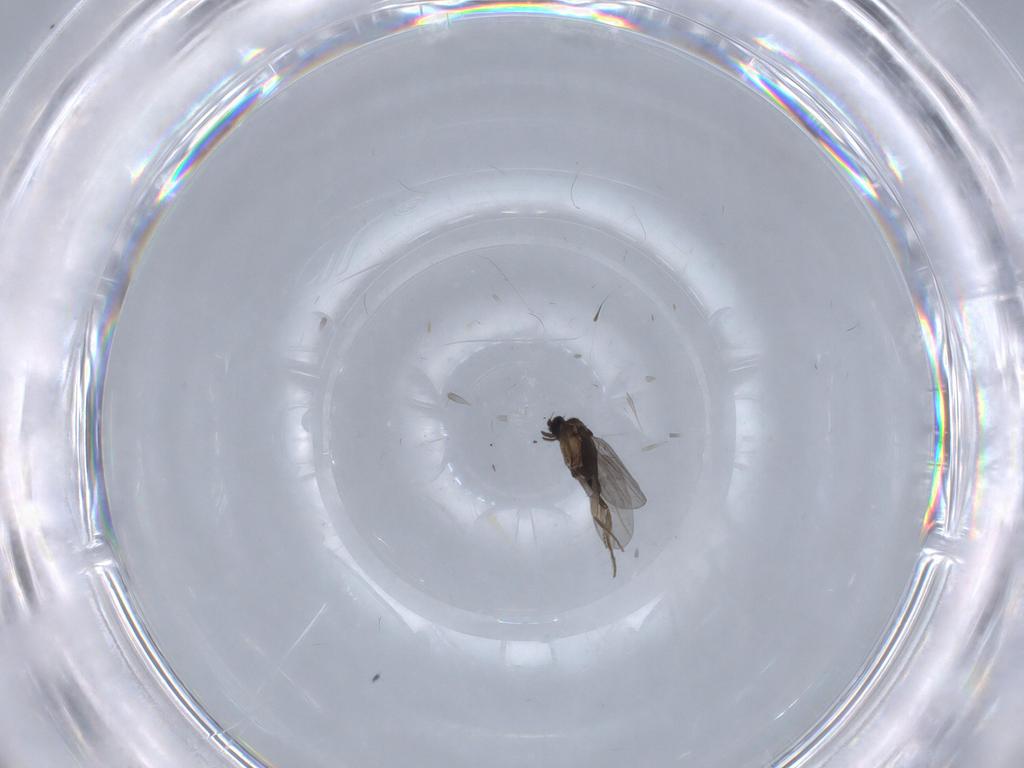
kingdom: Animalia
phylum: Arthropoda
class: Insecta
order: Diptera
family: Phoridae
